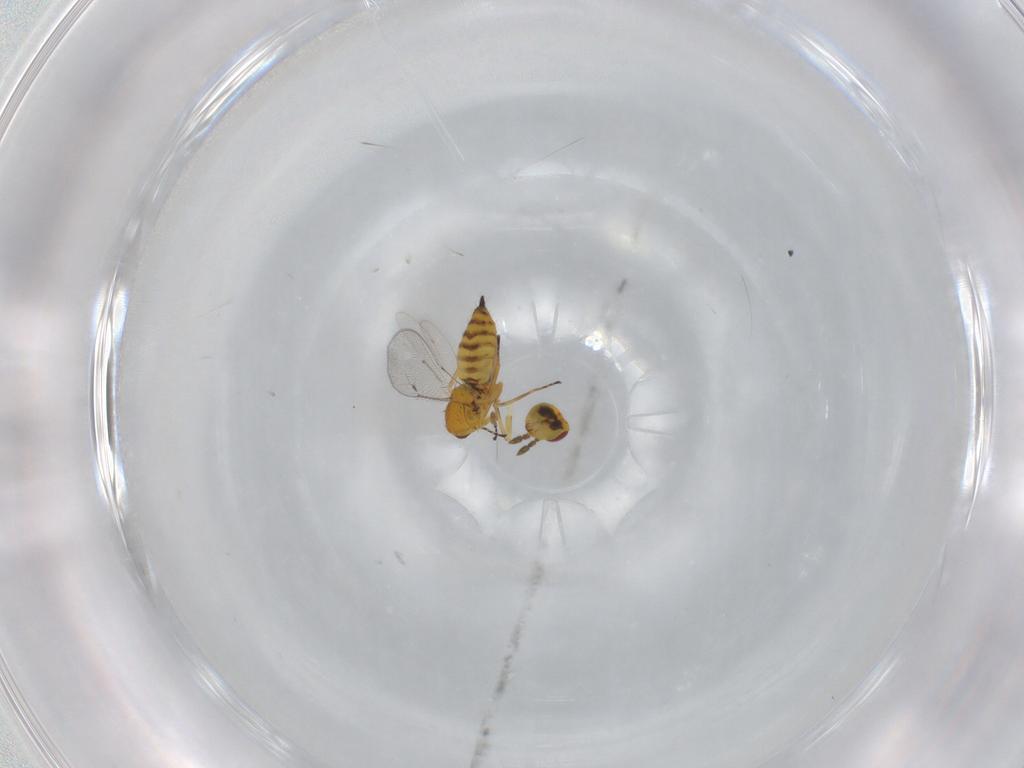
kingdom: Animalia
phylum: Arthropoda
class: Insecta
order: Hymenoptera
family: Eulophidae
